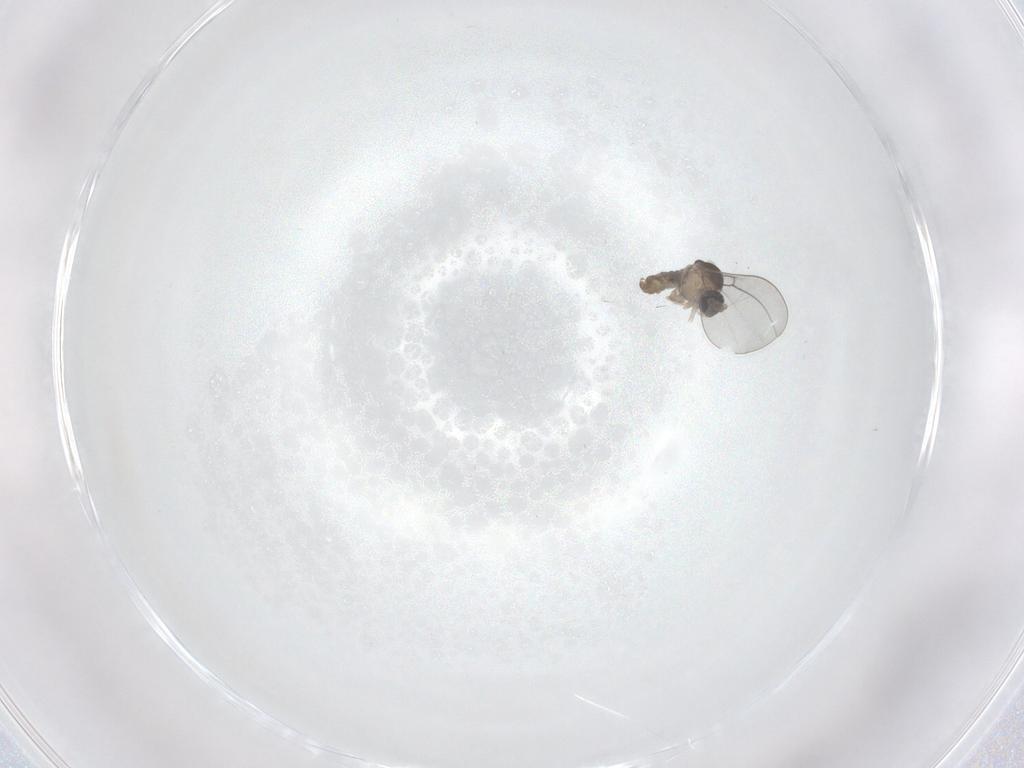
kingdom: Animalia
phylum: Arthropoda
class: Insecta
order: Diptera
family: Cecidomyiidae
